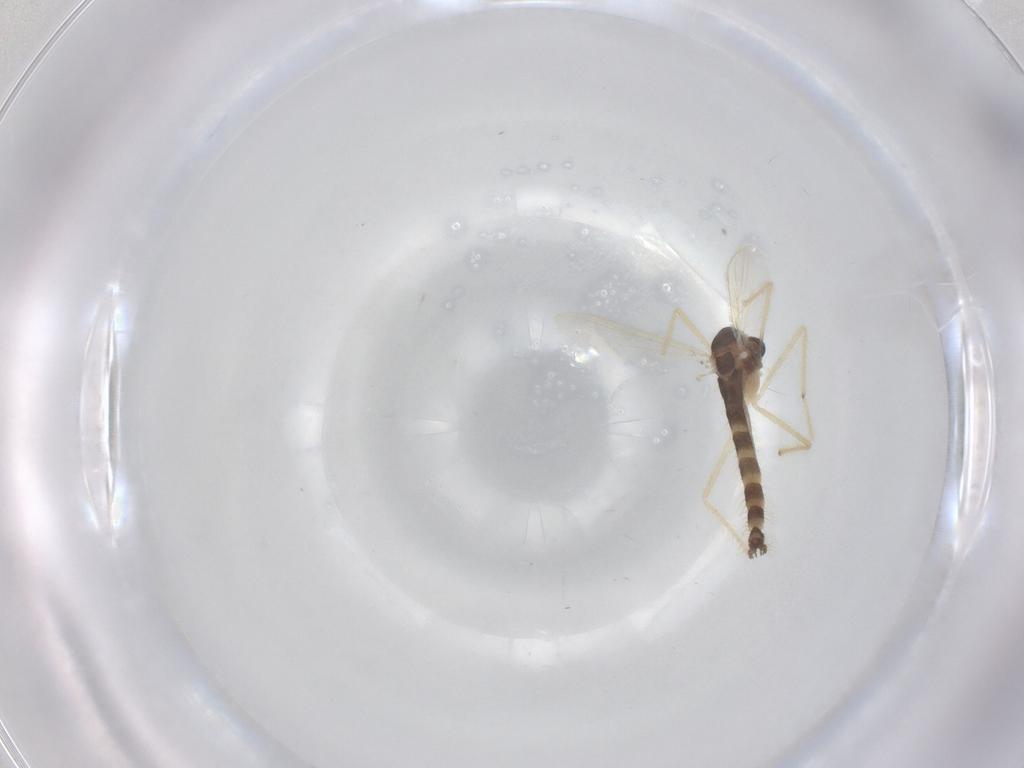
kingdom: Animalia
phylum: Arthropoda
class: Insecta
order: Diptera
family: Chironomidae
